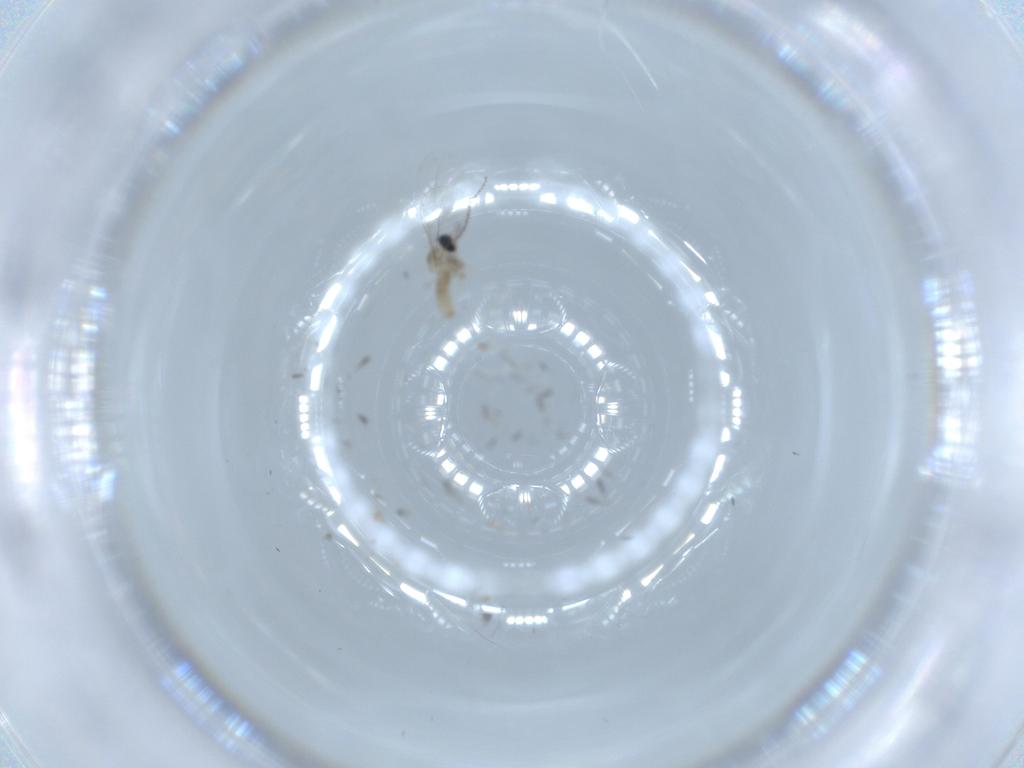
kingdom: Animalia
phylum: Arthropoda
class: Insecta
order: Diptera
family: Cecidomyiidae
